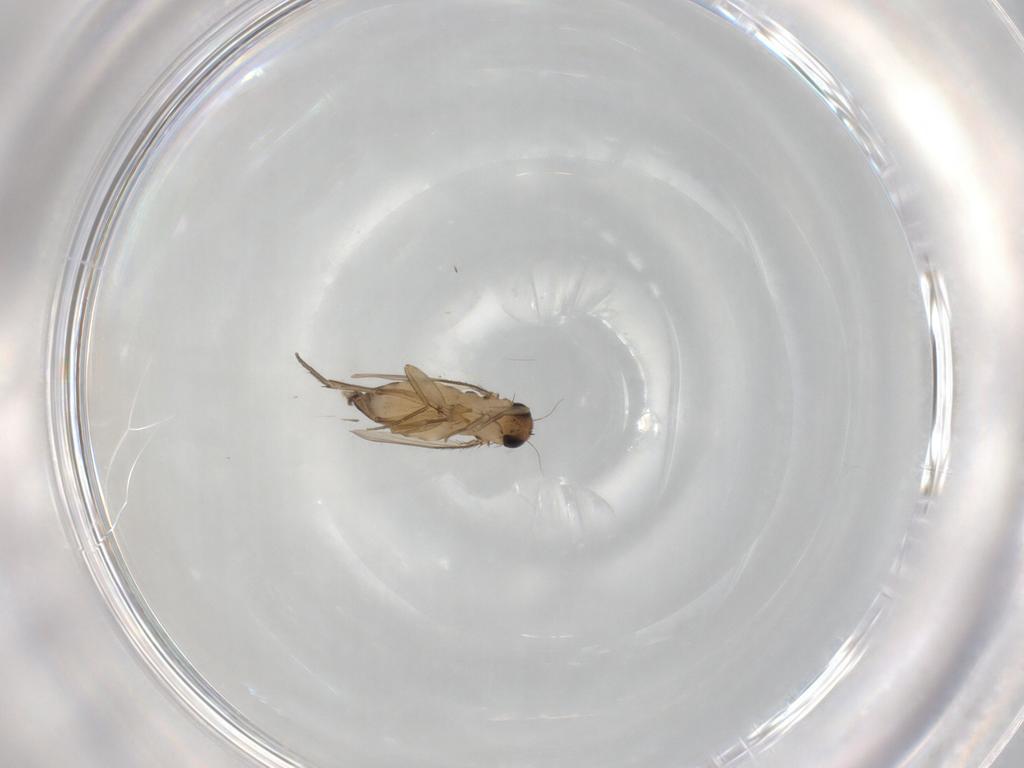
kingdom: Animalia
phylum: Arthropoda
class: Insecta
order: Diptera
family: Phoridae
